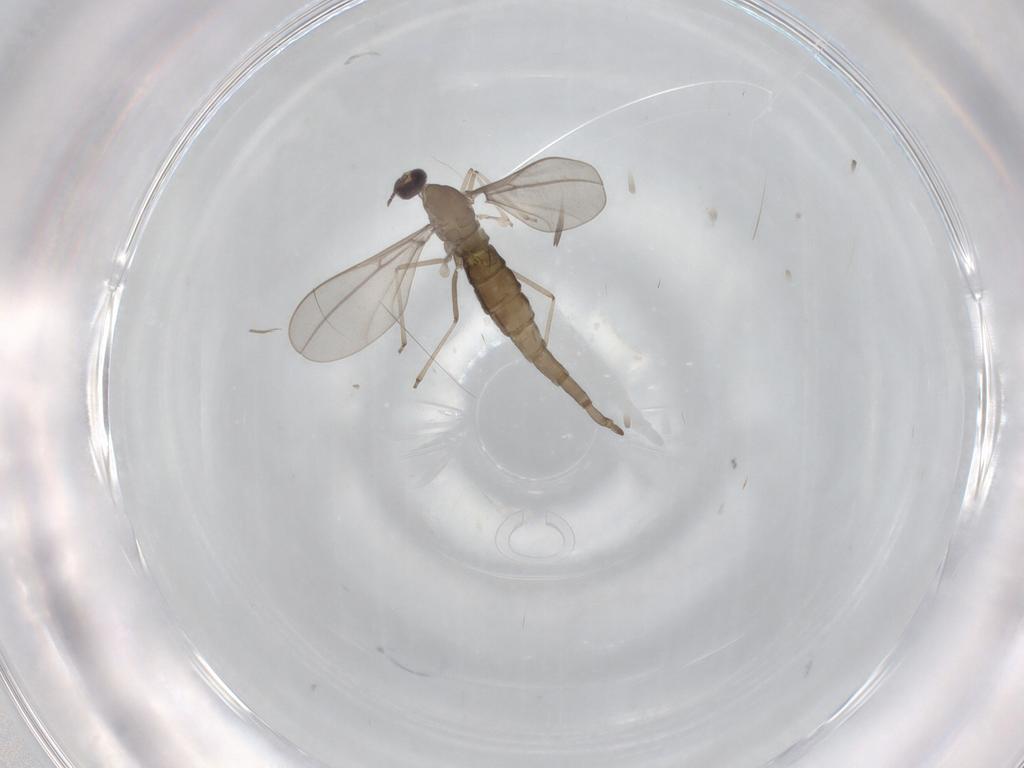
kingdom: Animalia
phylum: Arthropoda
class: Insecta
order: Diptera
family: Cecidomyiidae
